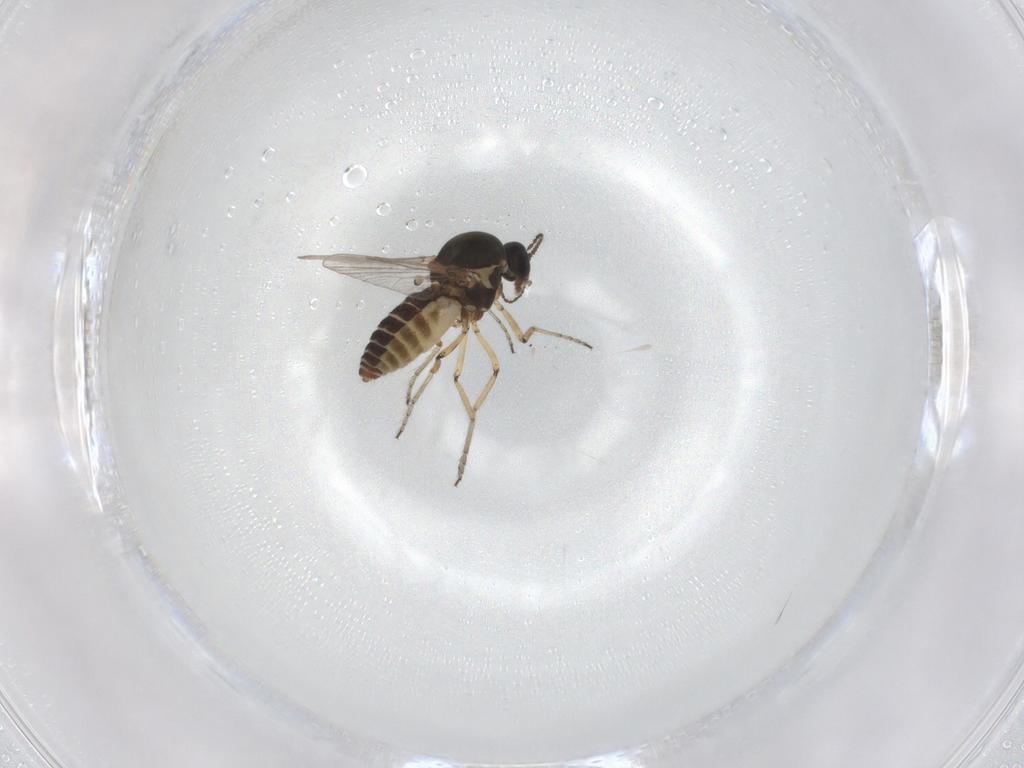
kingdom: Animalia
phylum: Arthropoda
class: Insecta
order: Diptera
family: Ceratopogonidae
